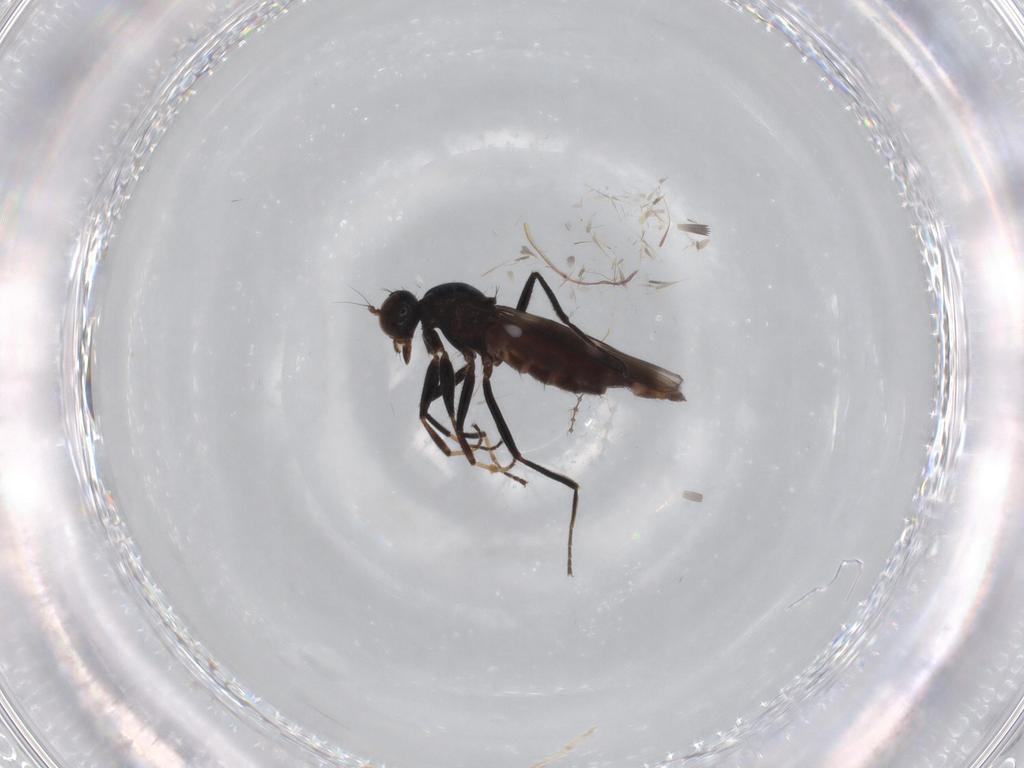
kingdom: Animalia
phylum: Arthropoda
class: Insecta
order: Diptera
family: Hybotidae
